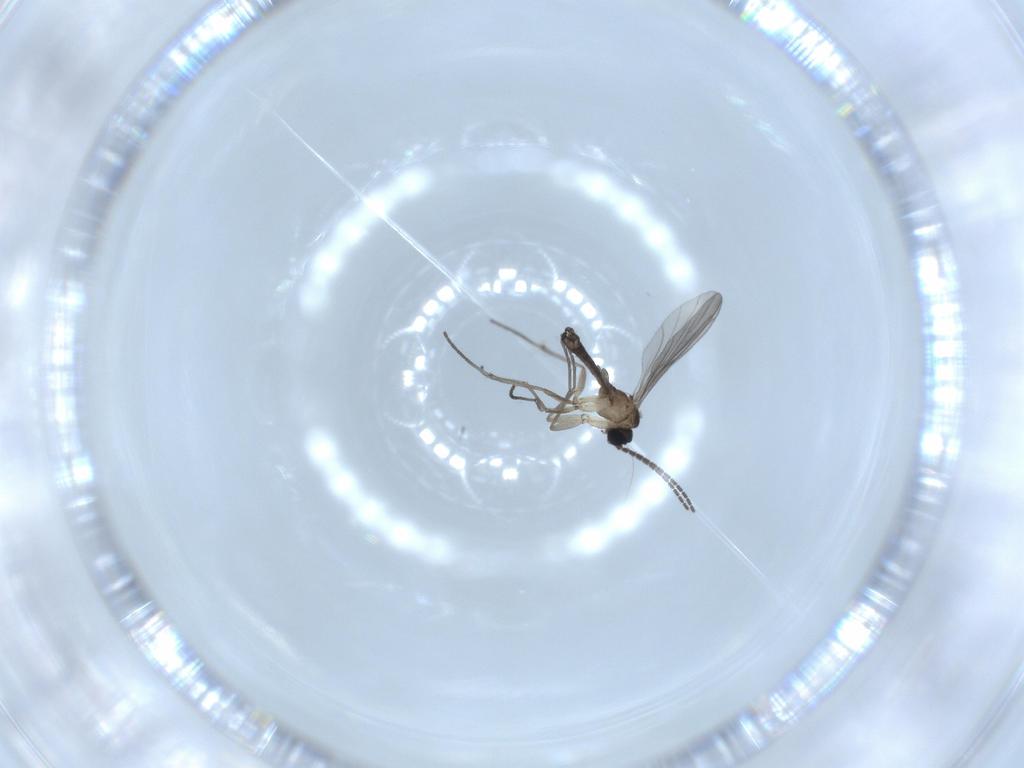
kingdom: Animalia
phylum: Arthropoda
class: Insecta
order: Diptera
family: Sciaridae
